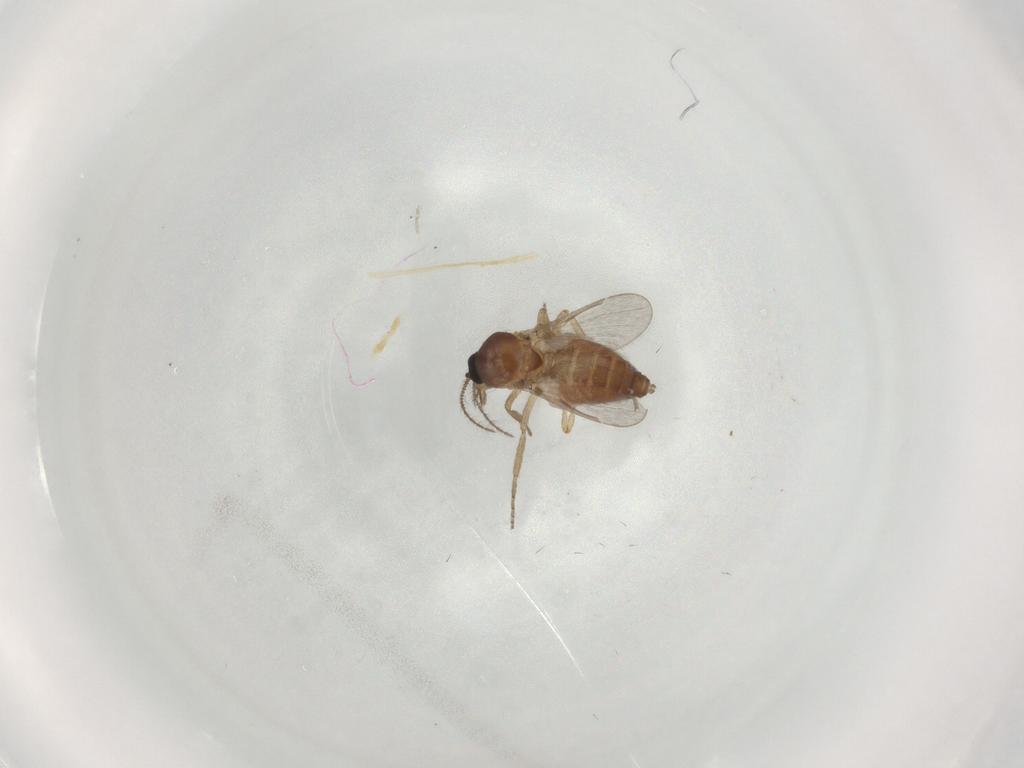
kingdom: Animalia
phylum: Arthropoda
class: Insecta
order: Diptera
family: Ceratopogonidae
